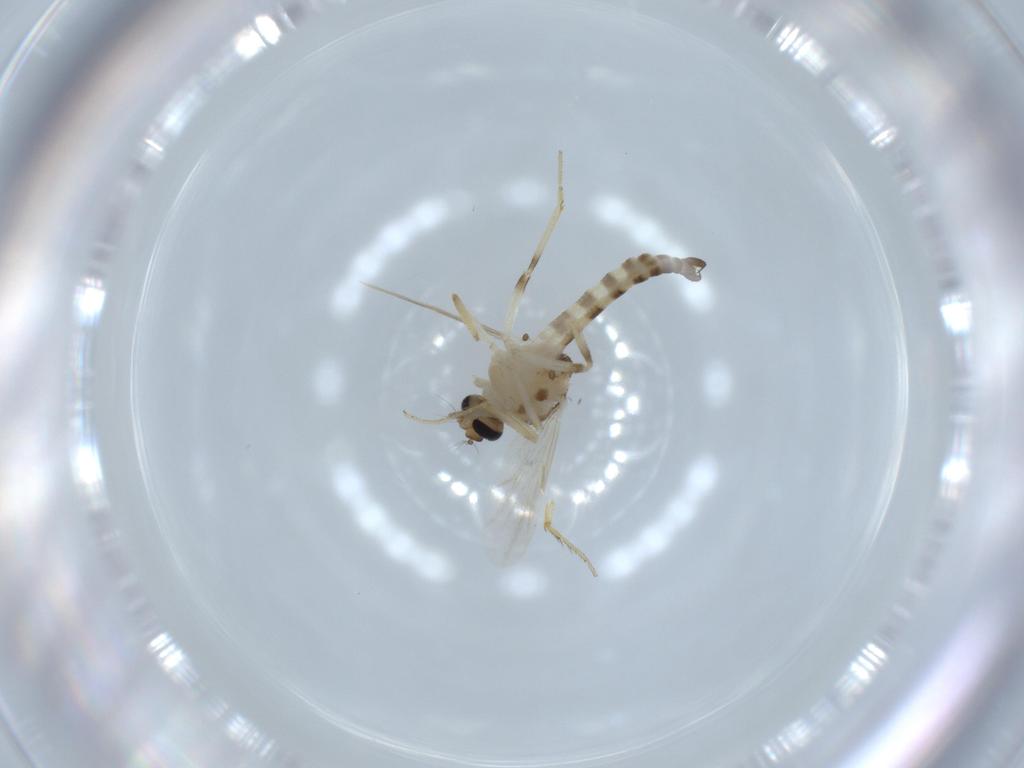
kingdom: Animalia
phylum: Arthropoda
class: Insecta
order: Diptera
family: Ceratopogonidae
